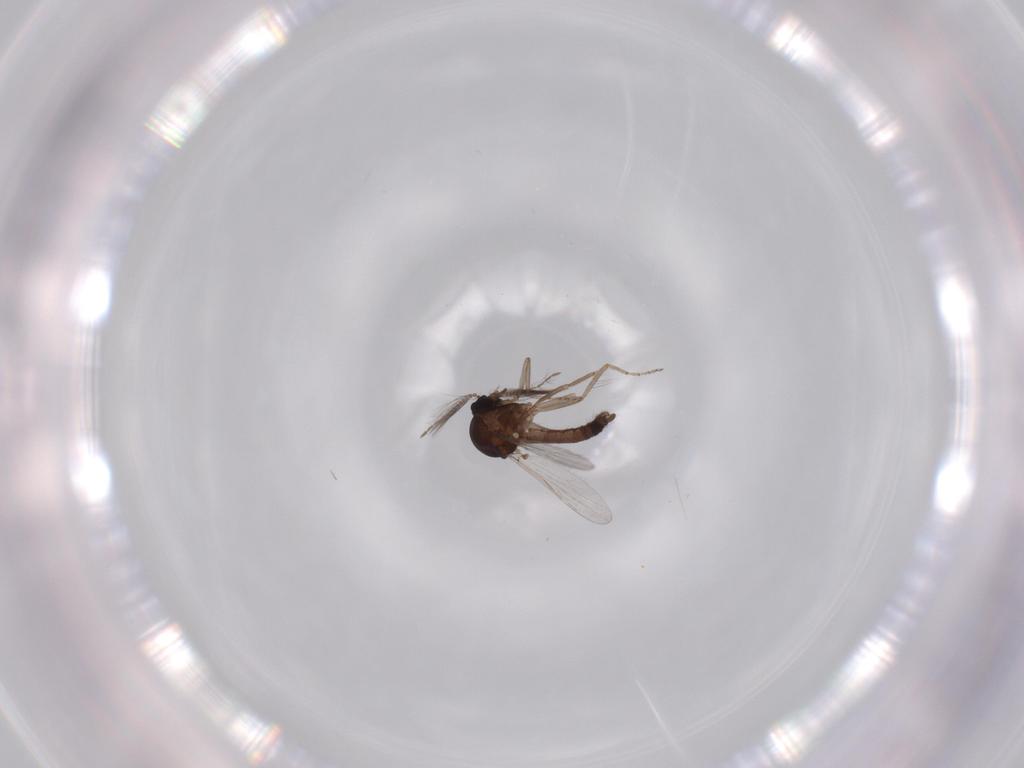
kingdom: Animalia
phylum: Arthropoda
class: Insecta
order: Diptera
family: Ceratopogonidae
